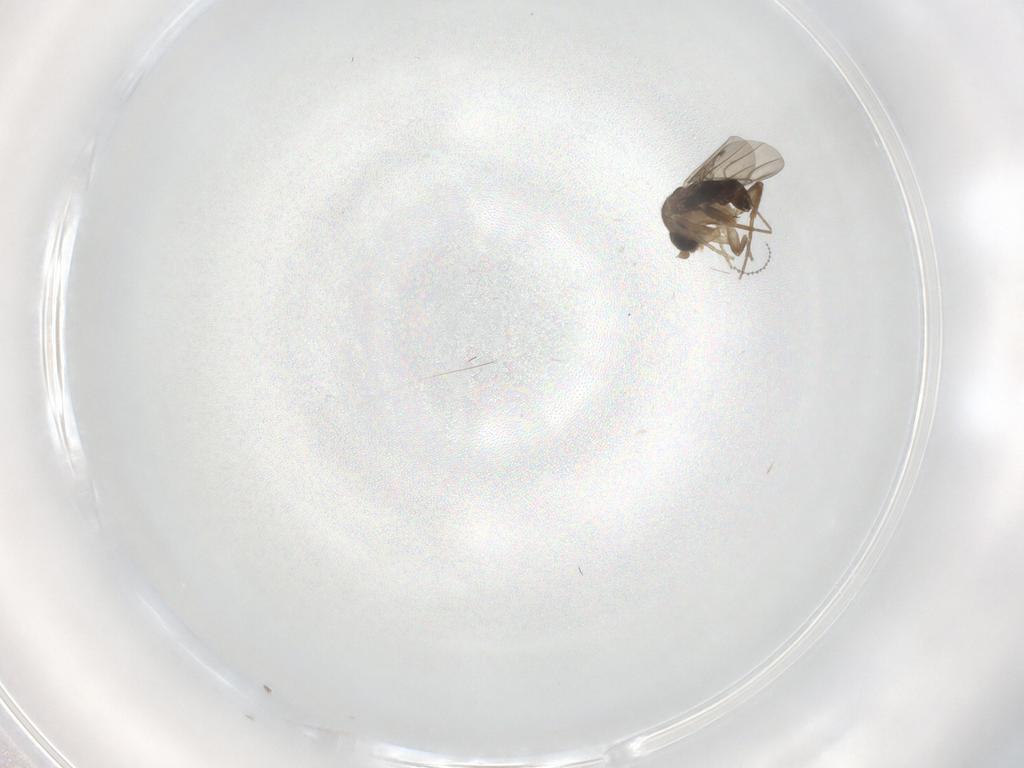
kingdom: Animalia
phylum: Arthropoda
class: Insecta
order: Diptera
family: Phoridae
